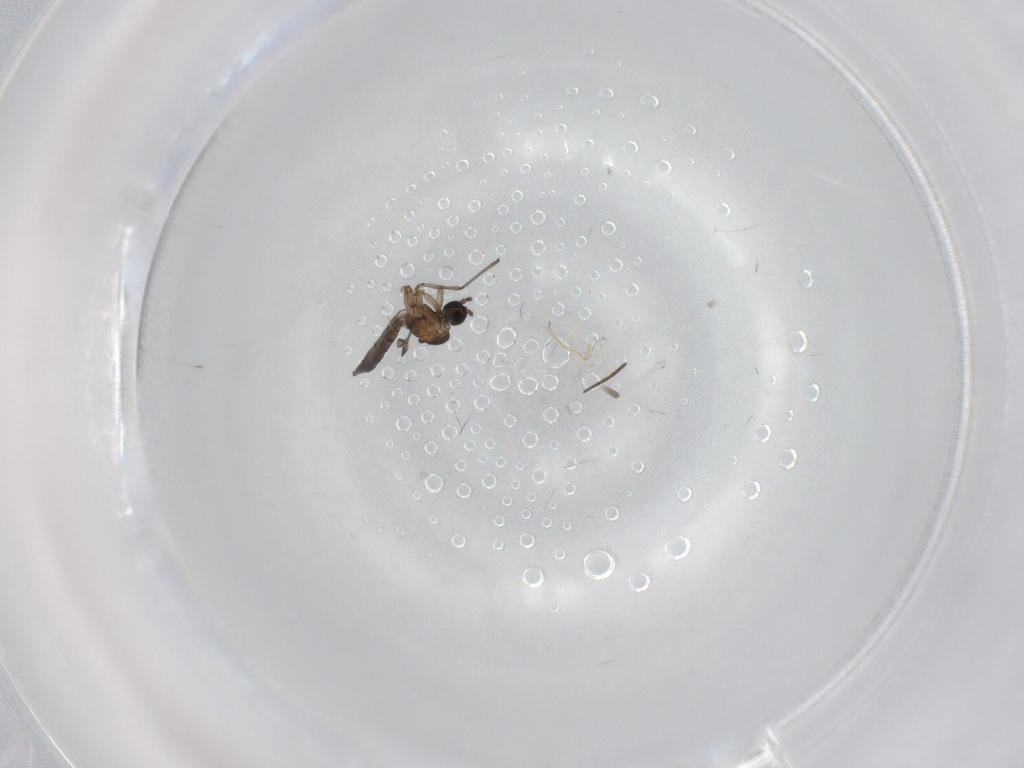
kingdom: Animalia
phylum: Arthropoda
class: Insecta
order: Diptera
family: Sciaridae
